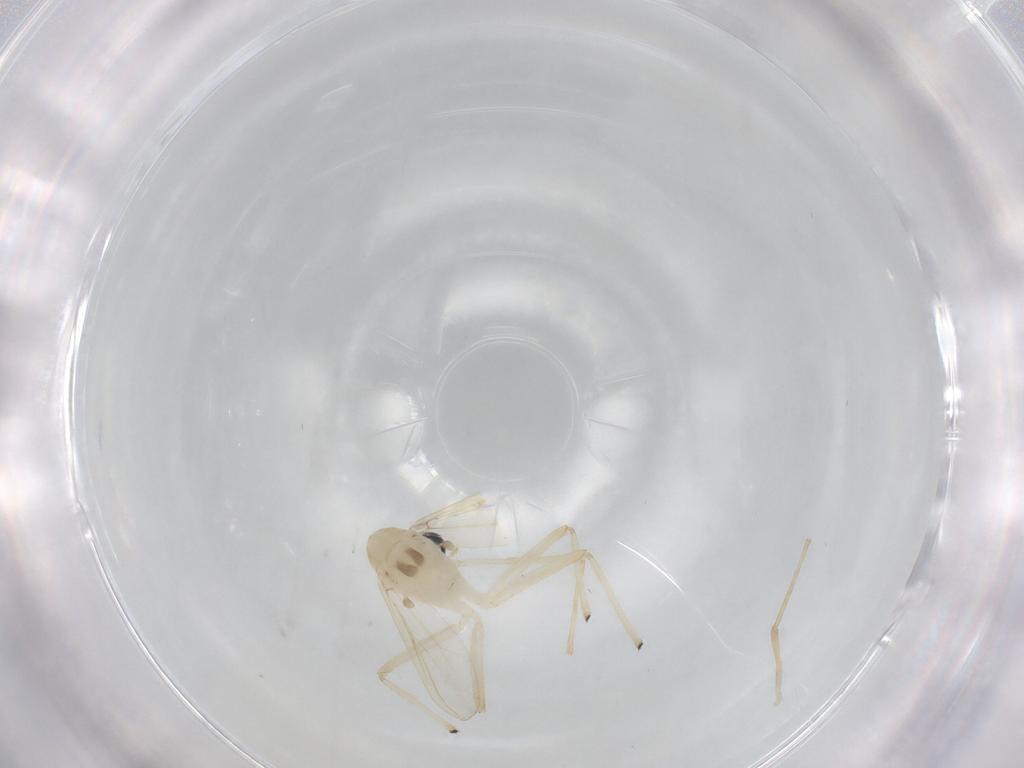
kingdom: Animalia
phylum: Arthropoda
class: Insecta
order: Diptera
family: Chironomidae
